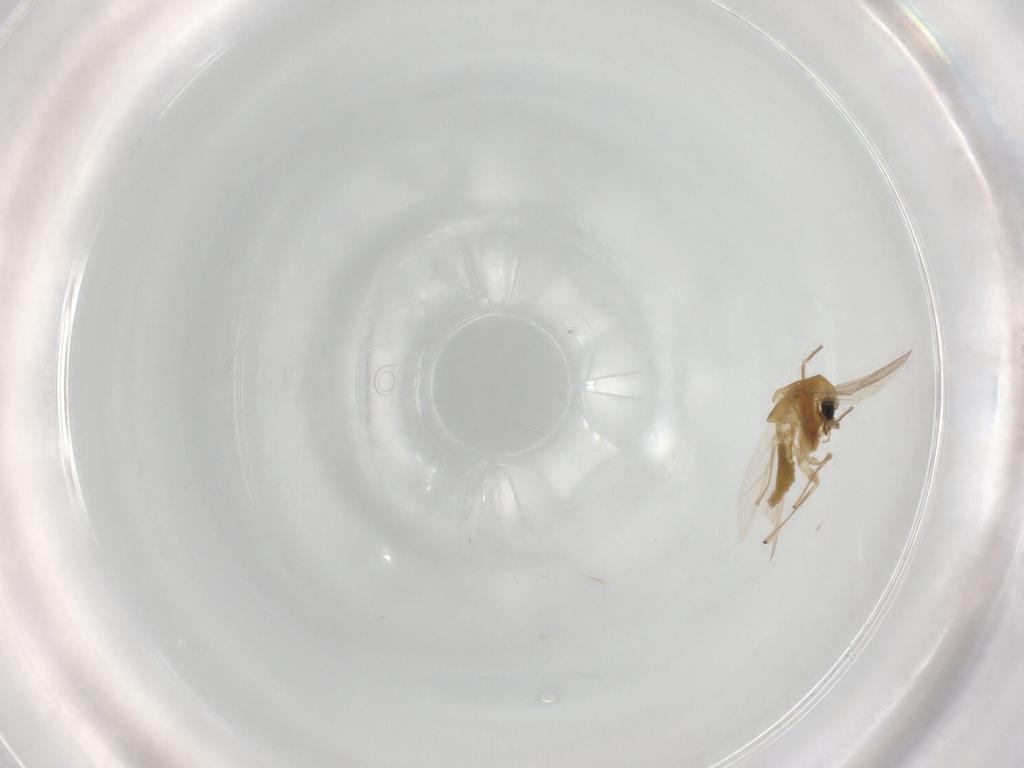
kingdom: Animalia
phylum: Arthropoda
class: Insecta
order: Diptera
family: Chironomidae
